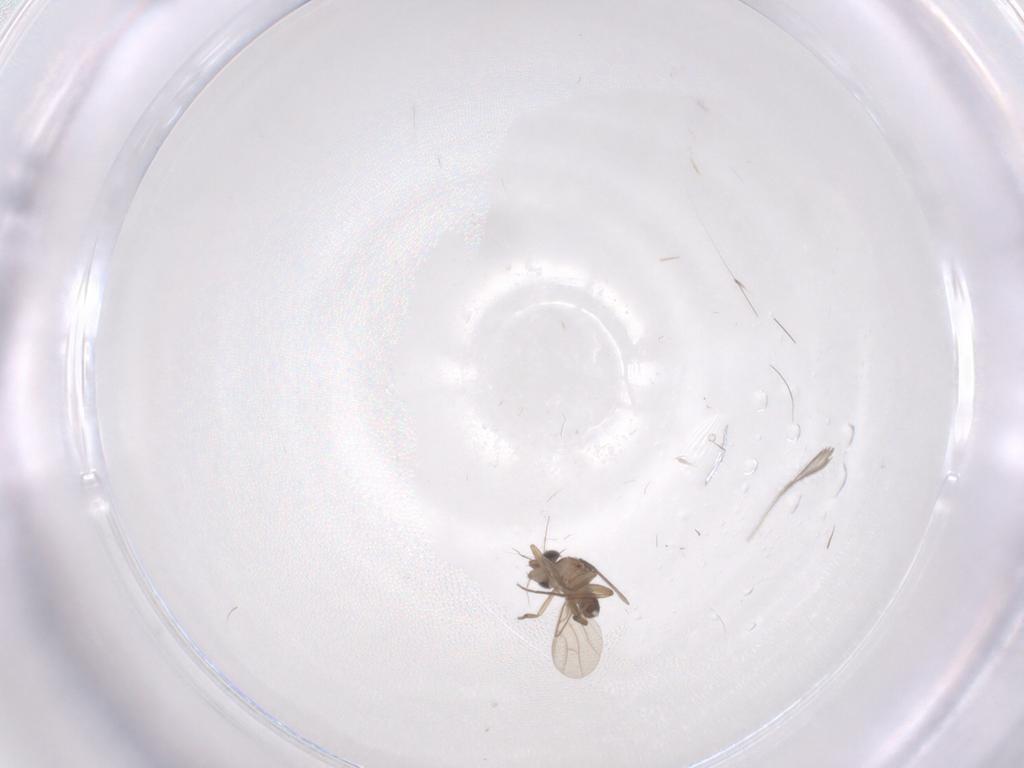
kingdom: Animalia
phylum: Arthropoda
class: Insecta
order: Diptera
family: Phoridae
